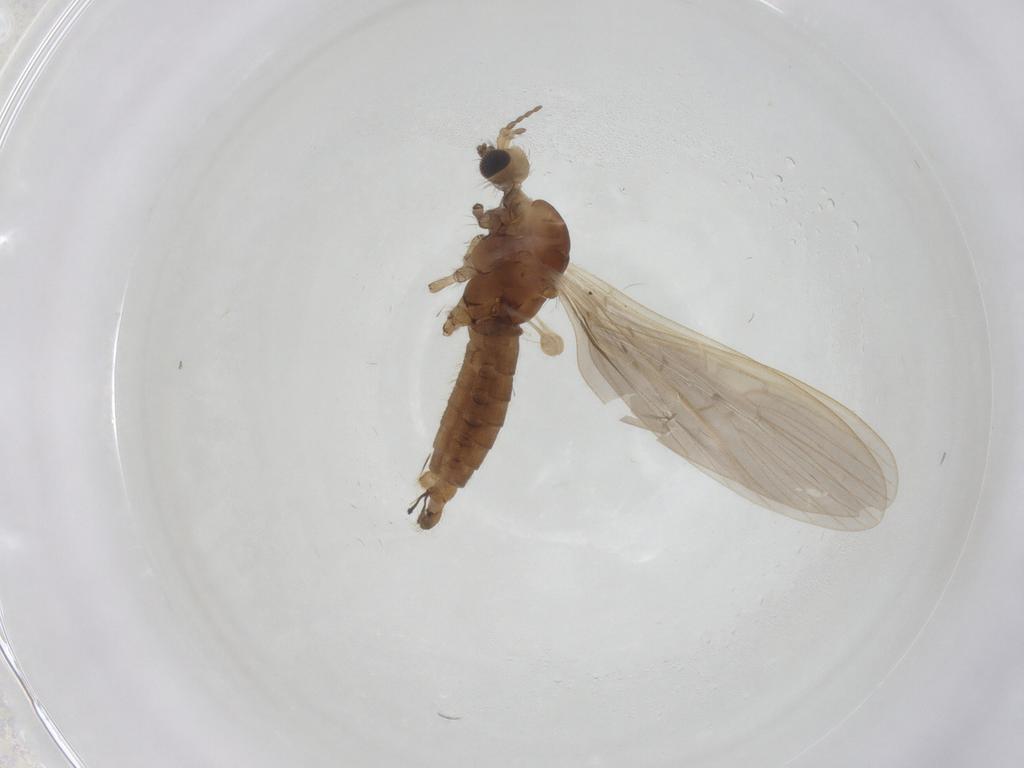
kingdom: Animalia
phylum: Arthropoda
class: Insecta
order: Diptera
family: Limoniidae
